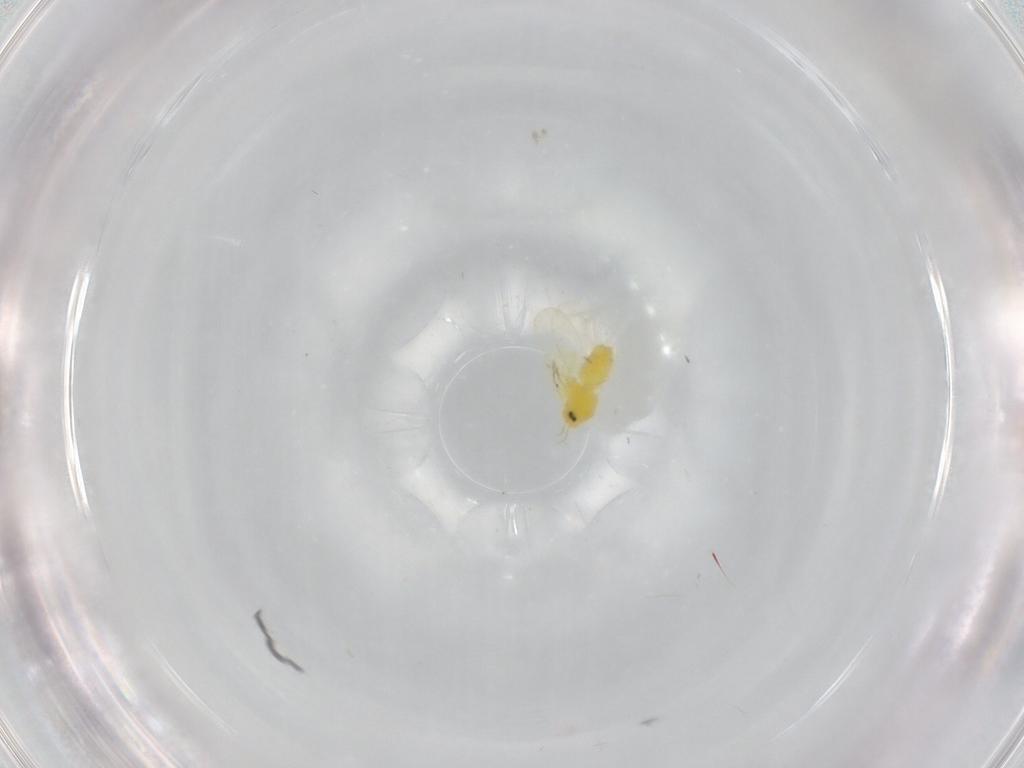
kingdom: Animalia
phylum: Arthropoda
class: Insecta
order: Hemiptera
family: Aleyrodidae
